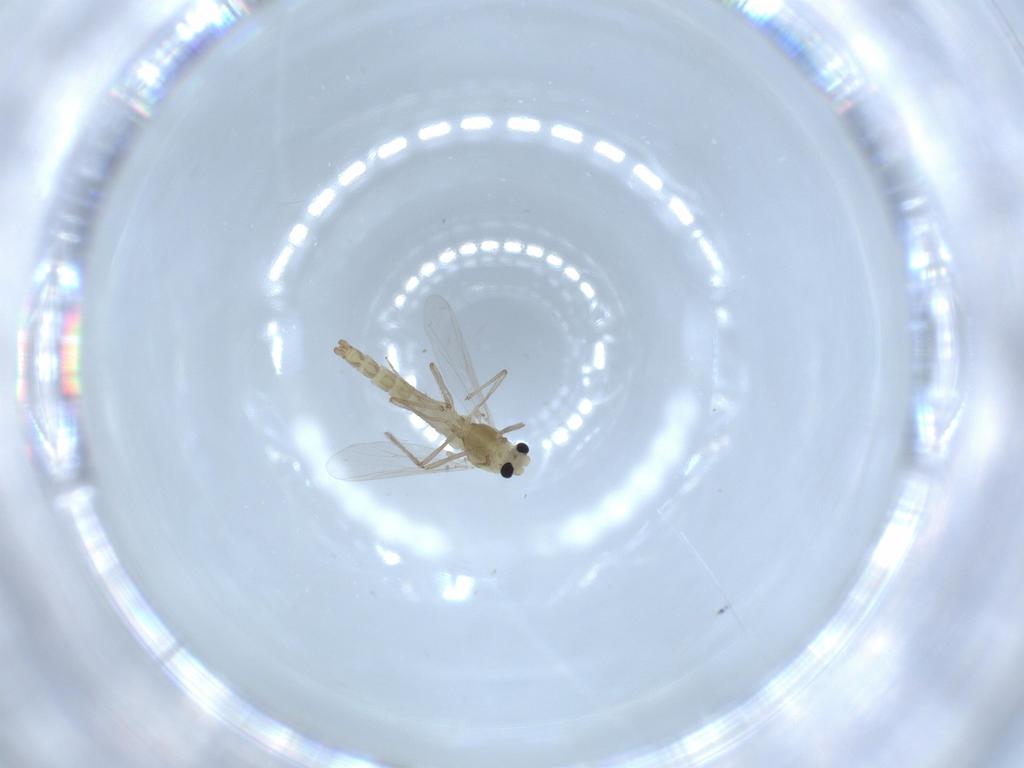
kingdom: Animalia
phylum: Arthropoda
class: Insecta
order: Diptera
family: Chironomidae
